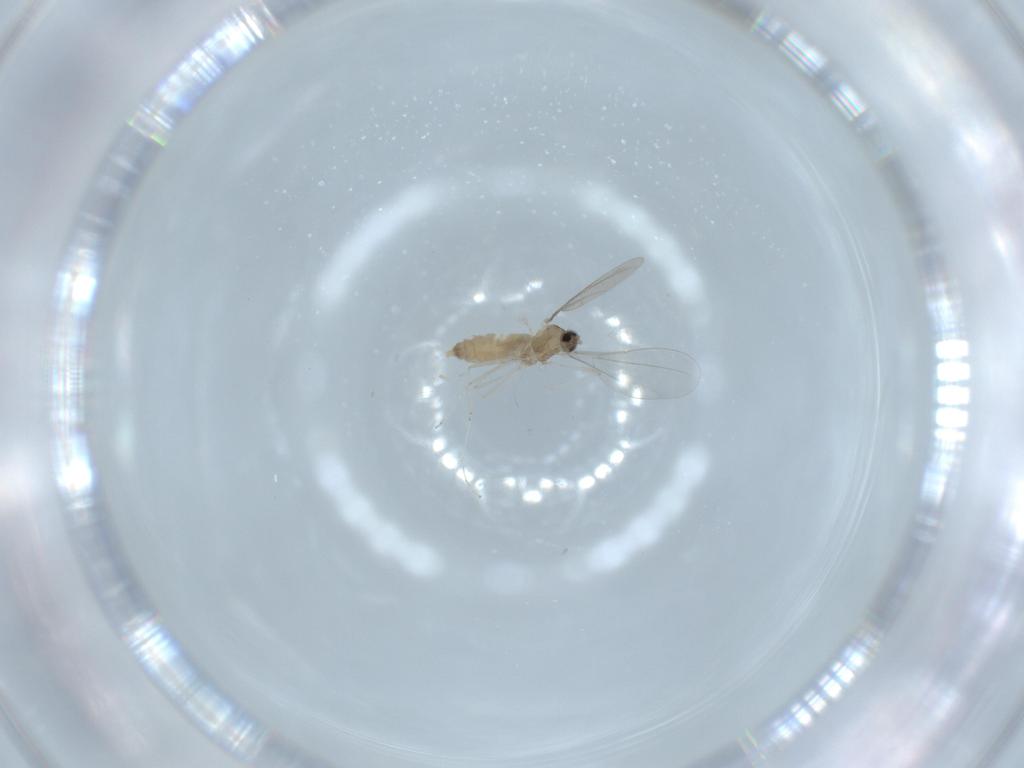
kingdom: Animalia
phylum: Arthropoda
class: Insecta
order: Diptera
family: Cecidomyiidae
